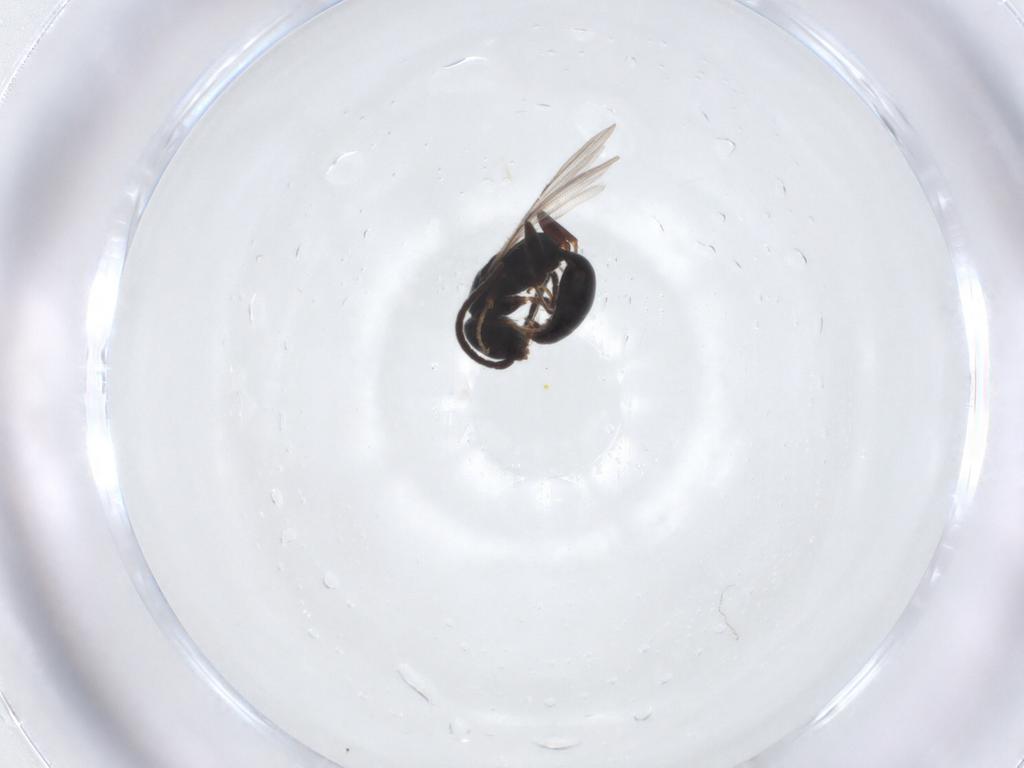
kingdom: Animalia
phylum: Arthropoda
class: Insecta
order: Hymenoptera
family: Bethylidae
